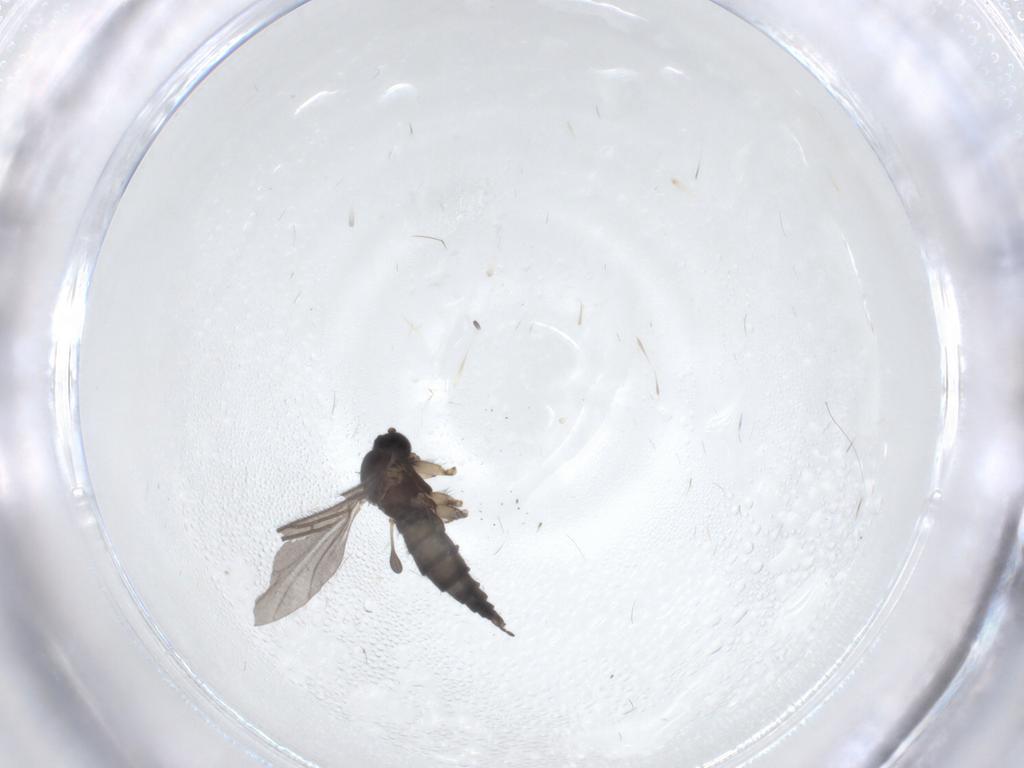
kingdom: Animalia
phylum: Arthropoda
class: Insecta
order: Diptera
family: Sciaridae
